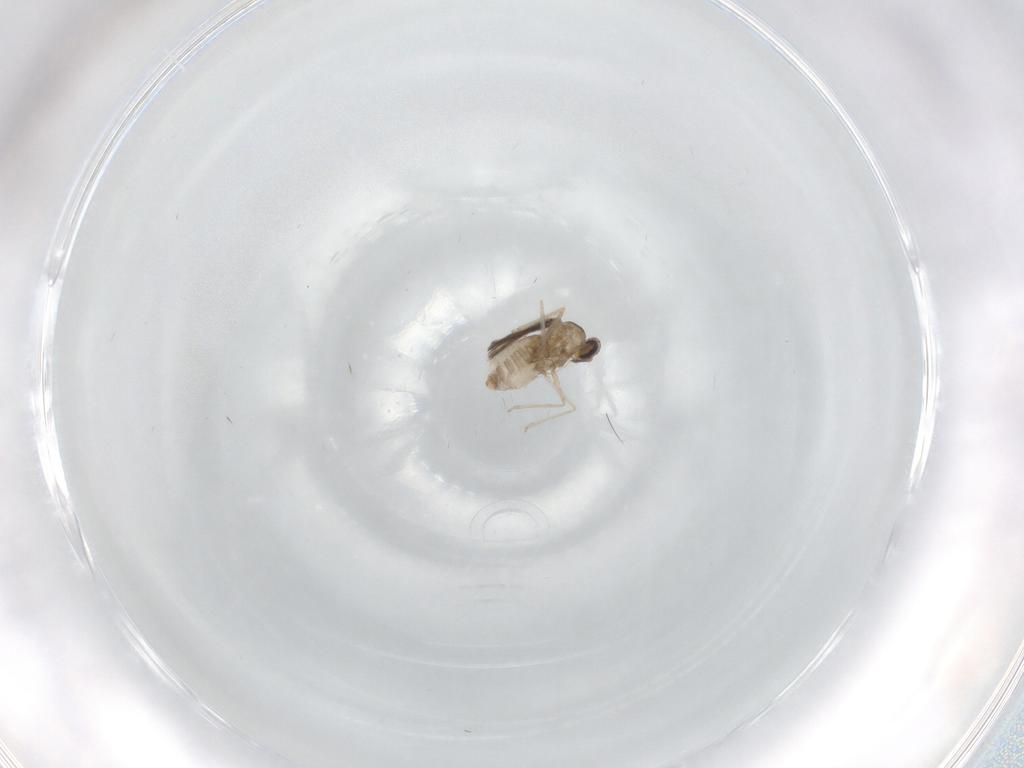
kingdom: Animalia
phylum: Arthropoda
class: Insecta
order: Diptera
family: Cecidomyiidae
